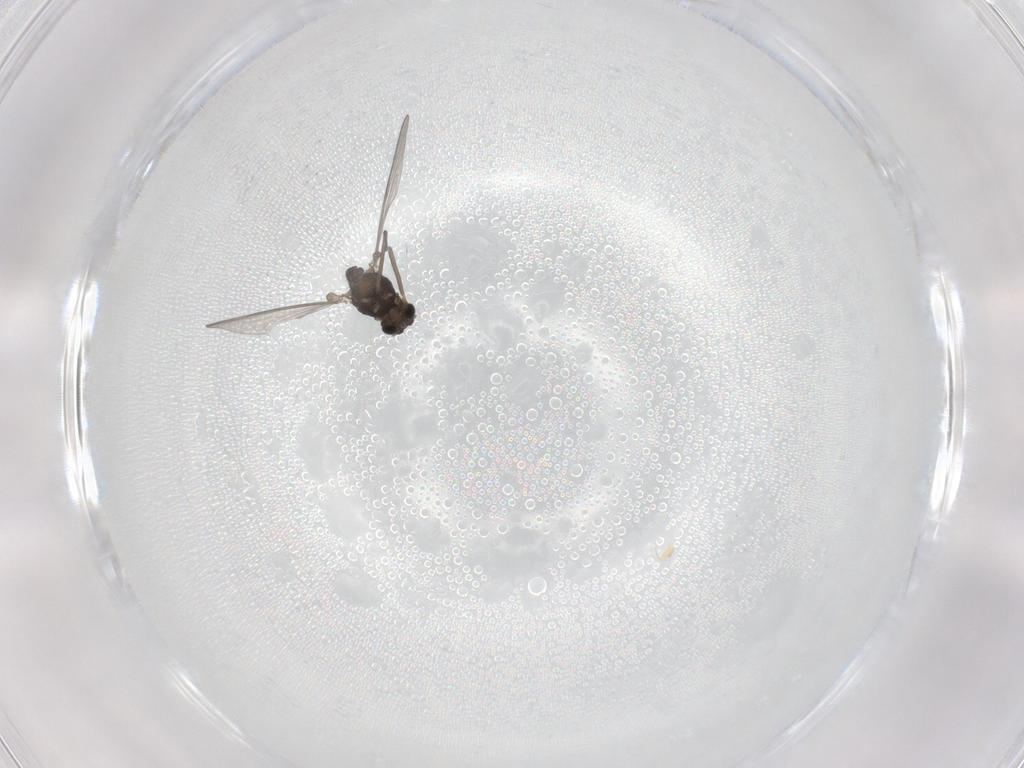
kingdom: Animalia
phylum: Arthropoda
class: Insecta
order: Diptera
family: Chironomidae
